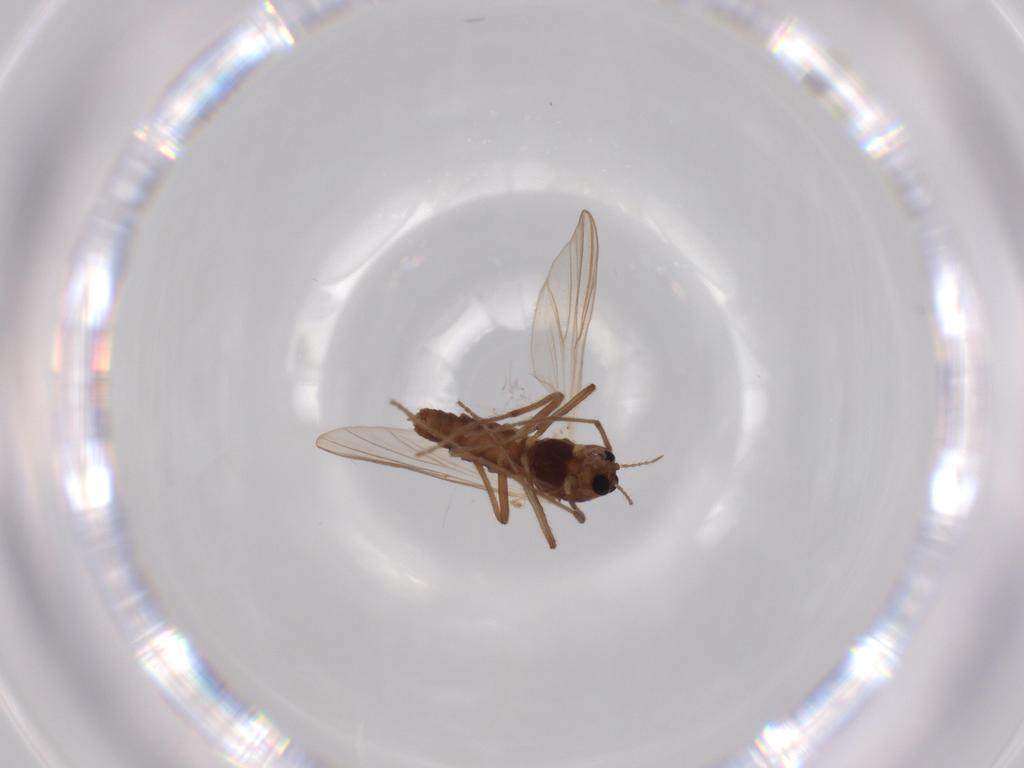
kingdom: Animalia
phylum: Arthropoda
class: Insecta
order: Diptera
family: Chironomidae
